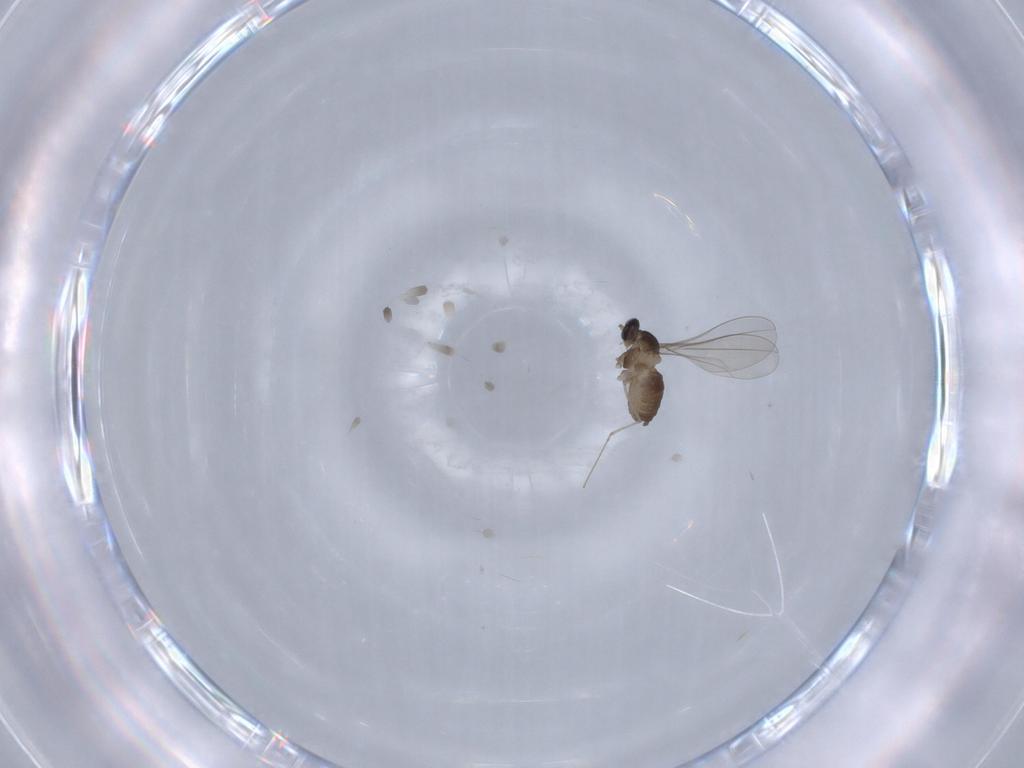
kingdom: Animalia
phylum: Arthropoda
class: Insecta
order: Diptera
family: Cecidomyiidae
